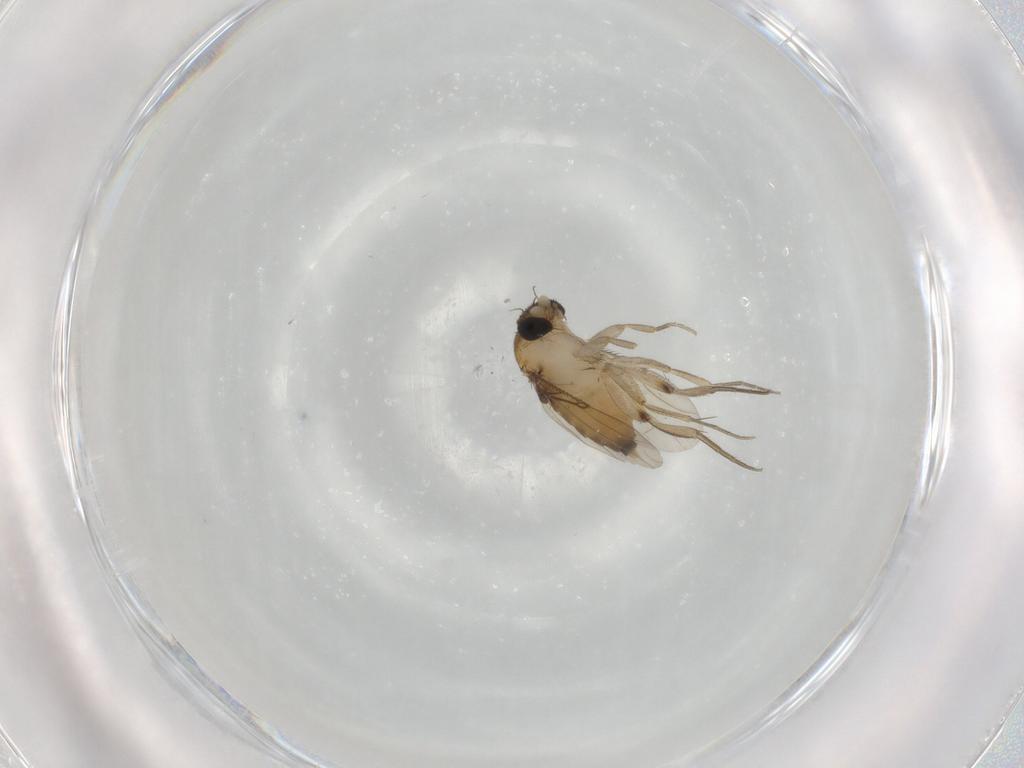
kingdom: Animalia
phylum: Arthropoda
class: Insecta
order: Diptera
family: Phoridae
